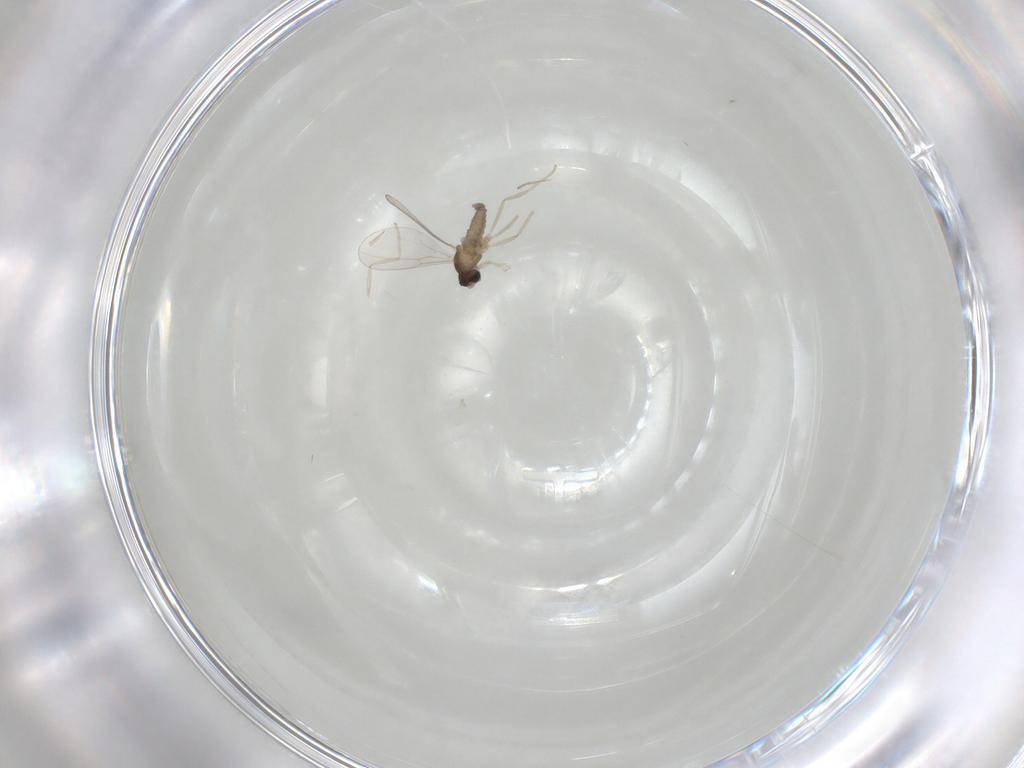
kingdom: Animalia
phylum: Arthropoda
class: Insecta
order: Diptera
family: Cecidomyiidae
